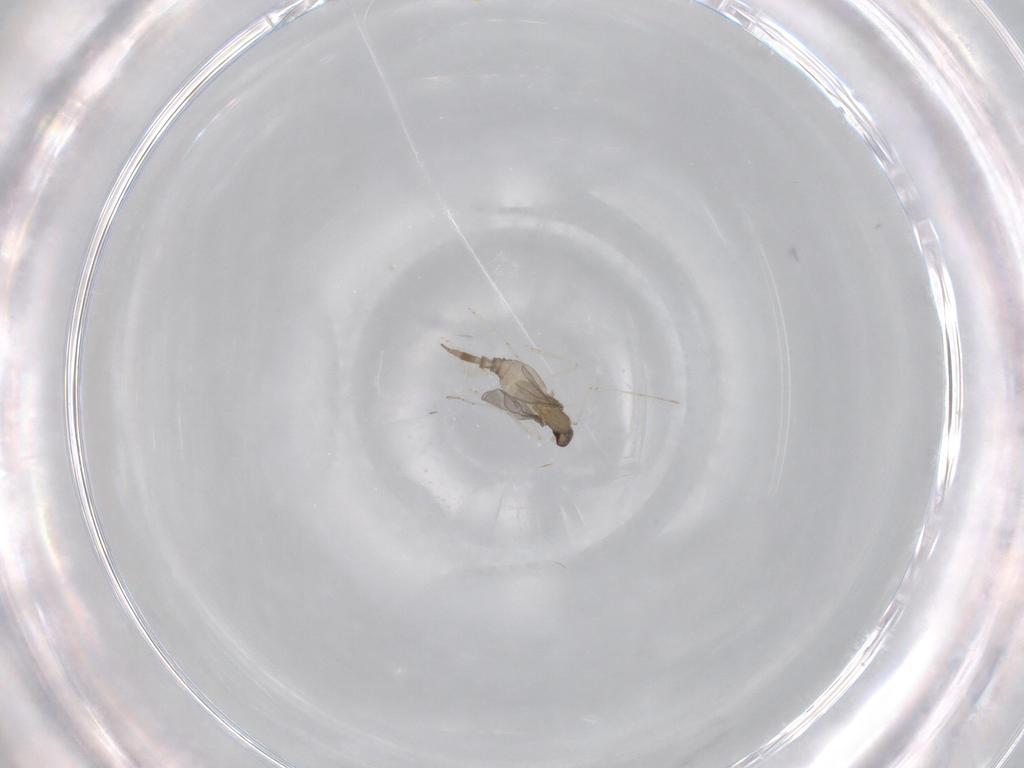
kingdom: Animalia
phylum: Arthropoda
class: Insecta
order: Diptera
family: Cecidomyiidae
